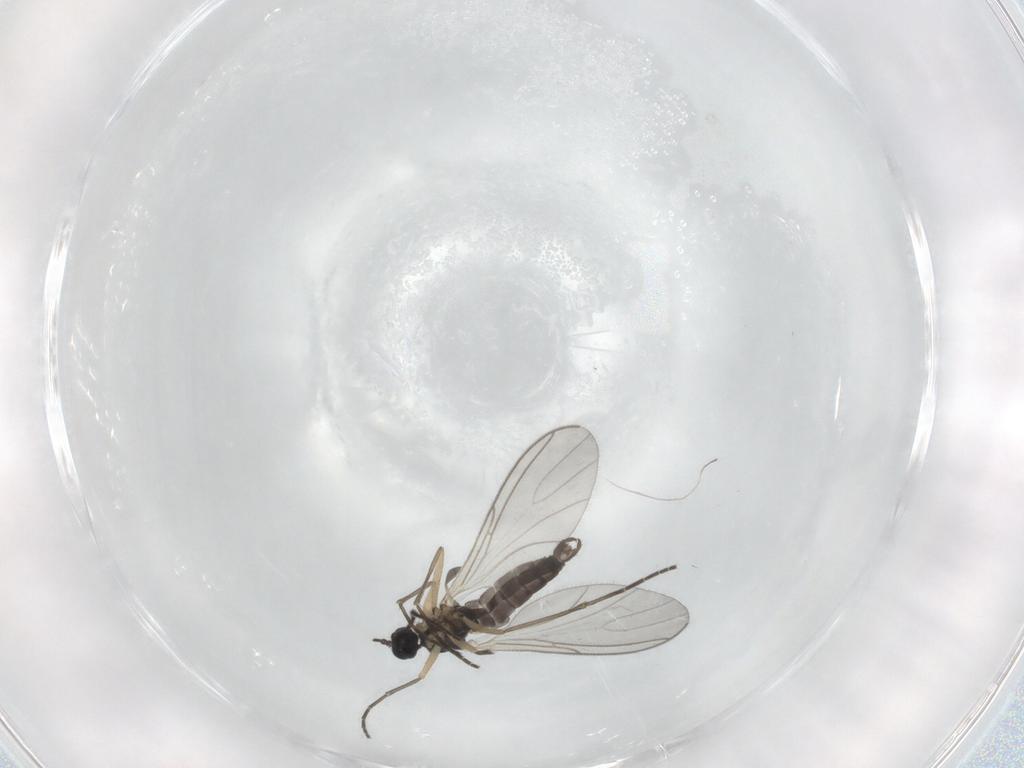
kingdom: Animalia
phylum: Arthropoda
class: Insecta
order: Diptera
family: Sciaridae
